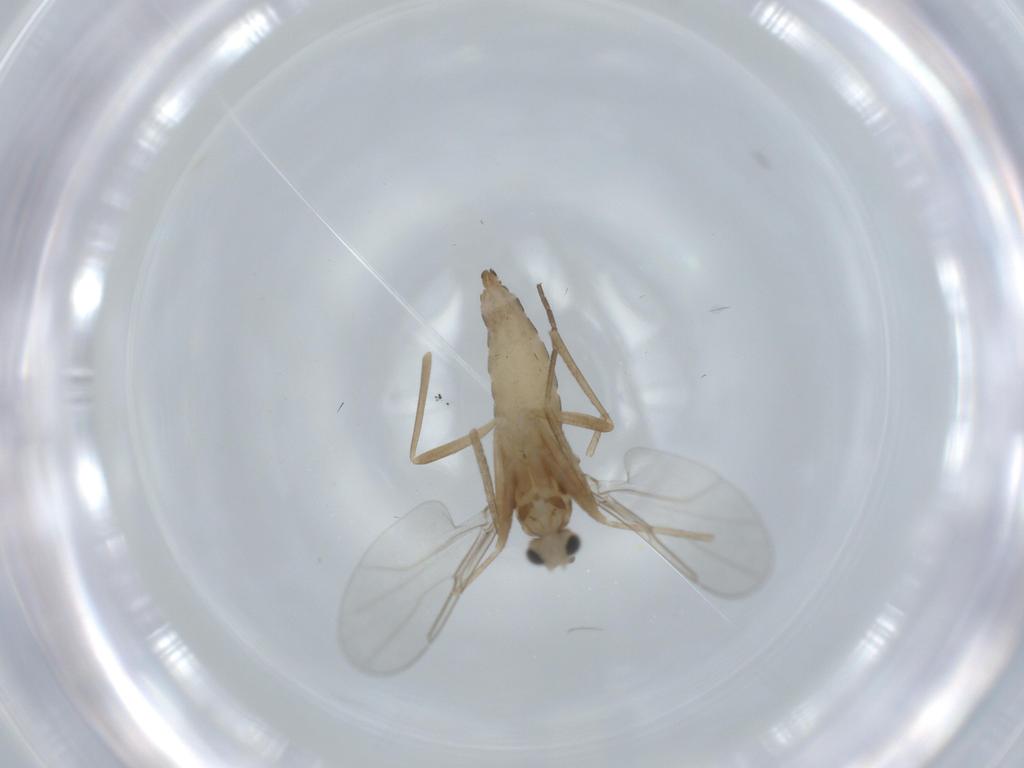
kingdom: Animalia
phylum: Arthropoda
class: Insecta
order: Diptera
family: Cecidomyiidae
